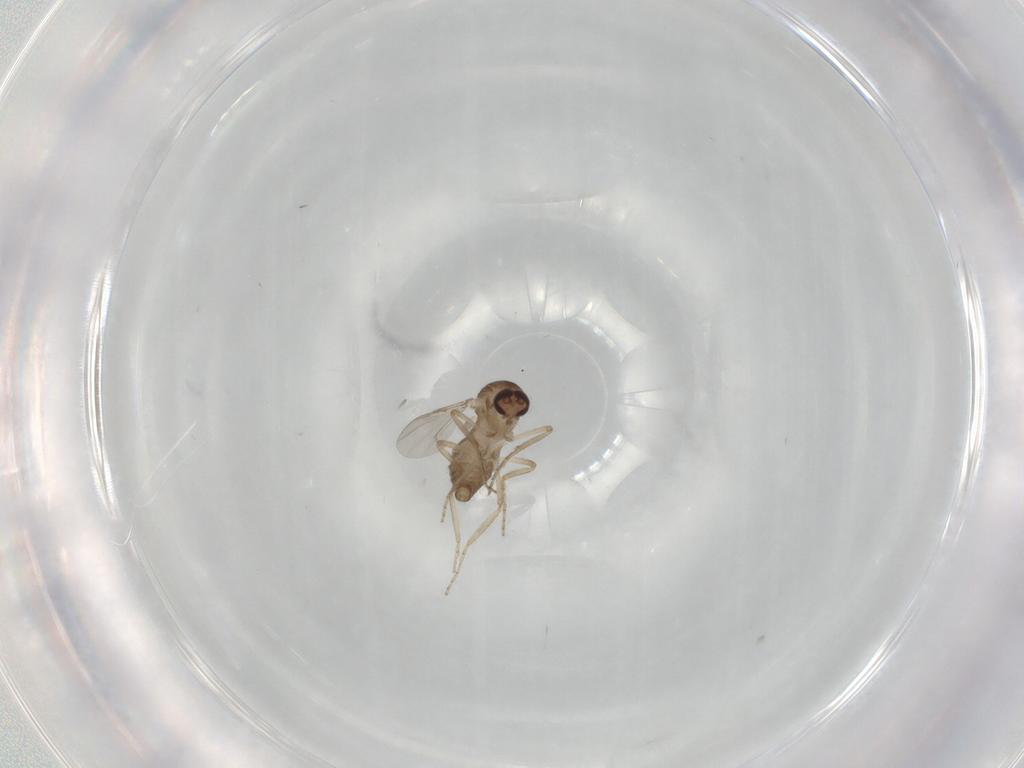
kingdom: Animalia
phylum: Arthropoda
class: Insecta
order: Diptera
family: Ceratopogonidae
